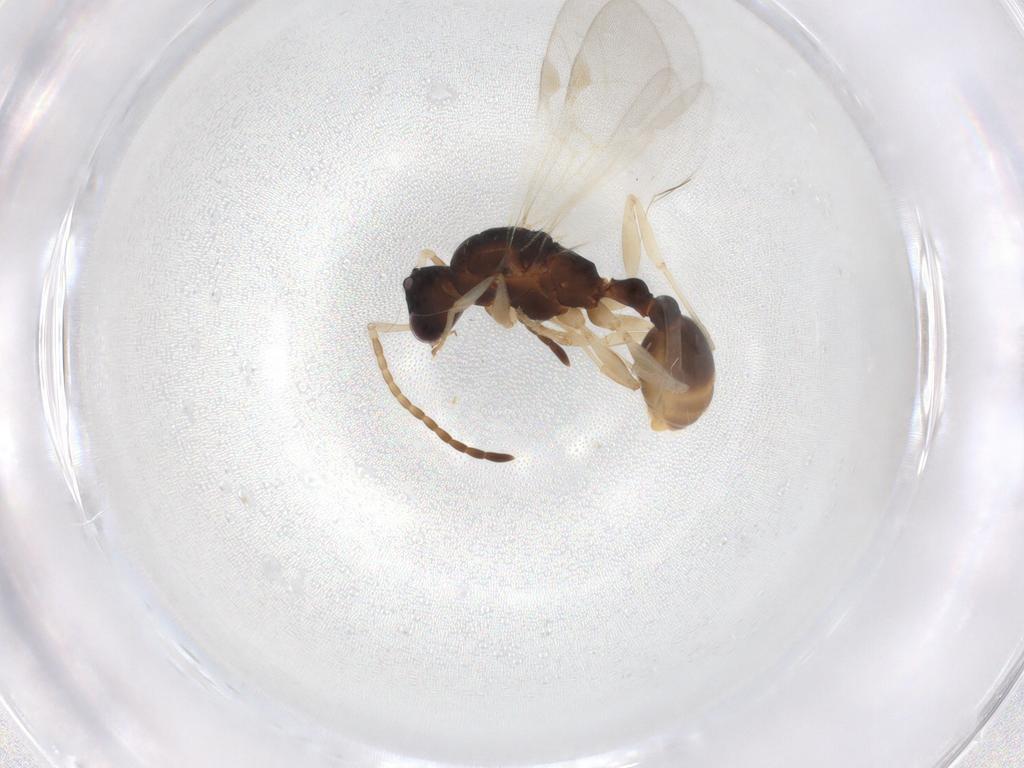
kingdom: Animalia
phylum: Arthropoda
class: Insecta
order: Hymenoptera
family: Formicidae
